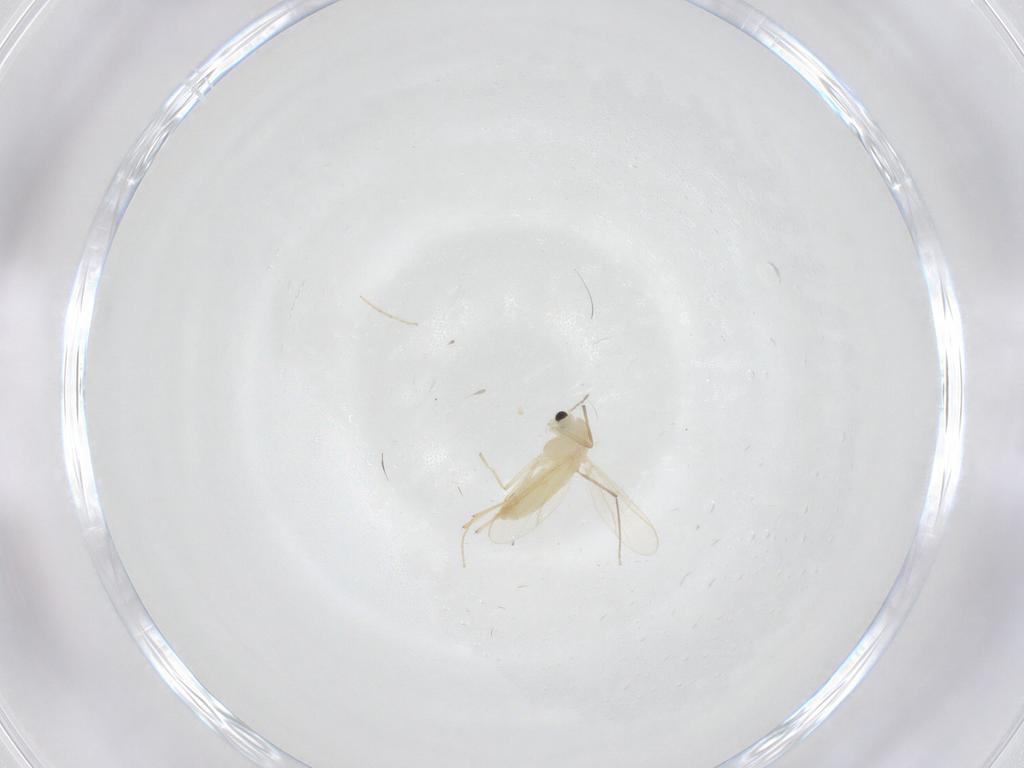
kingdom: Animalia
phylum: Arthropoda
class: Insecta
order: Diptera
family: Chironomidae
